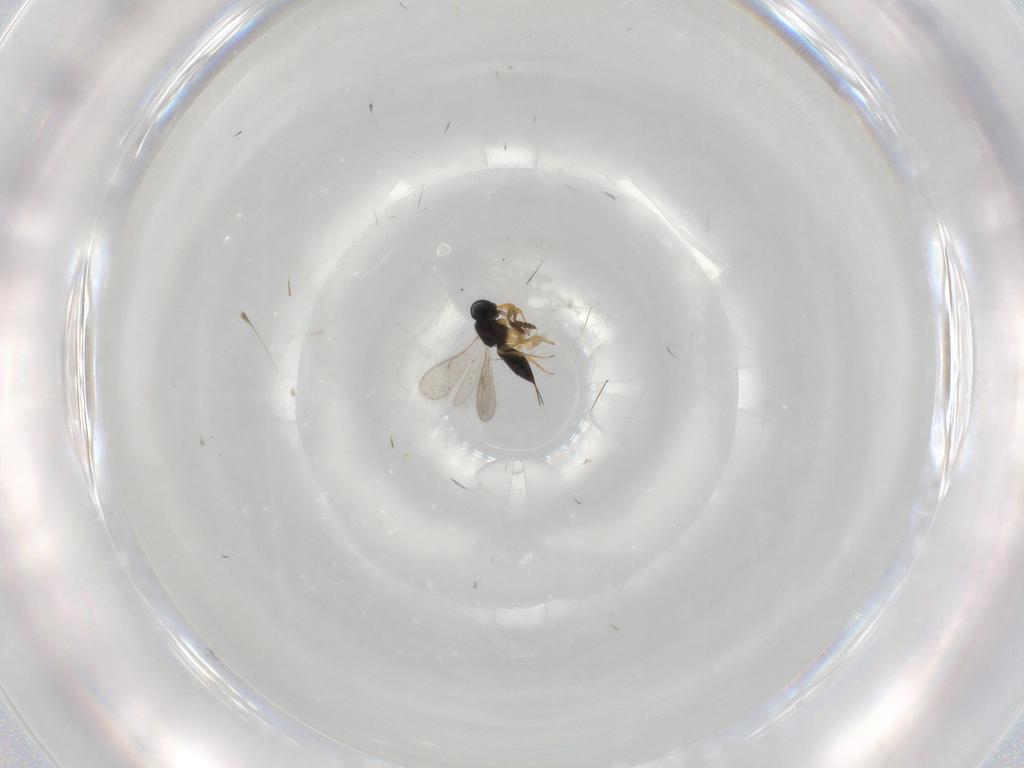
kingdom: Animalia
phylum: Arthropoda
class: Insecta
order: Hymenoptera
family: Scelionidae
